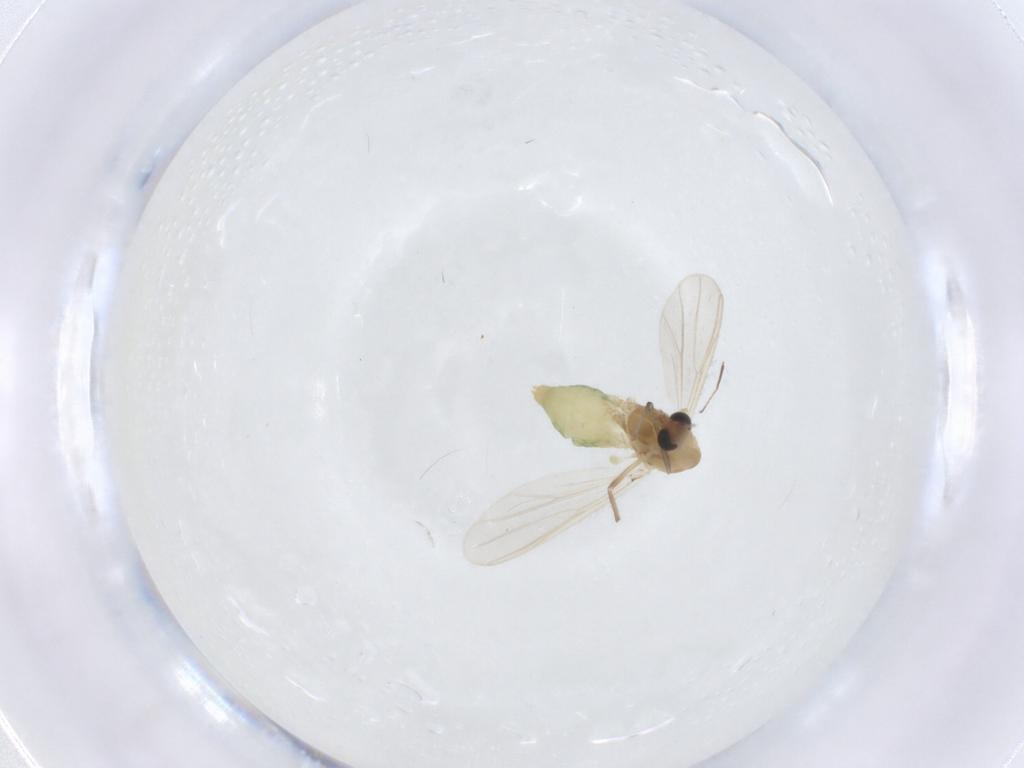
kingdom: Animalia
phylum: Arthropoda
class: Insecta
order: Diptera
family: Chironomidae
